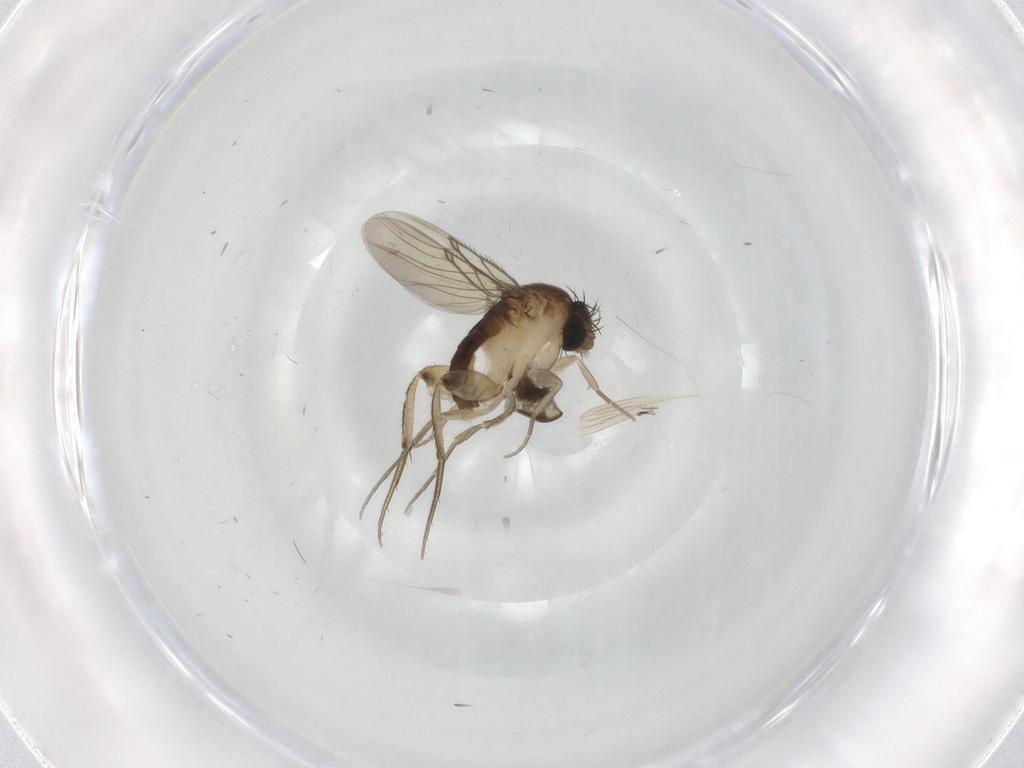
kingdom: Animalia
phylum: Arthropoda
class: Insecta
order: Diptera
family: Phoridae
